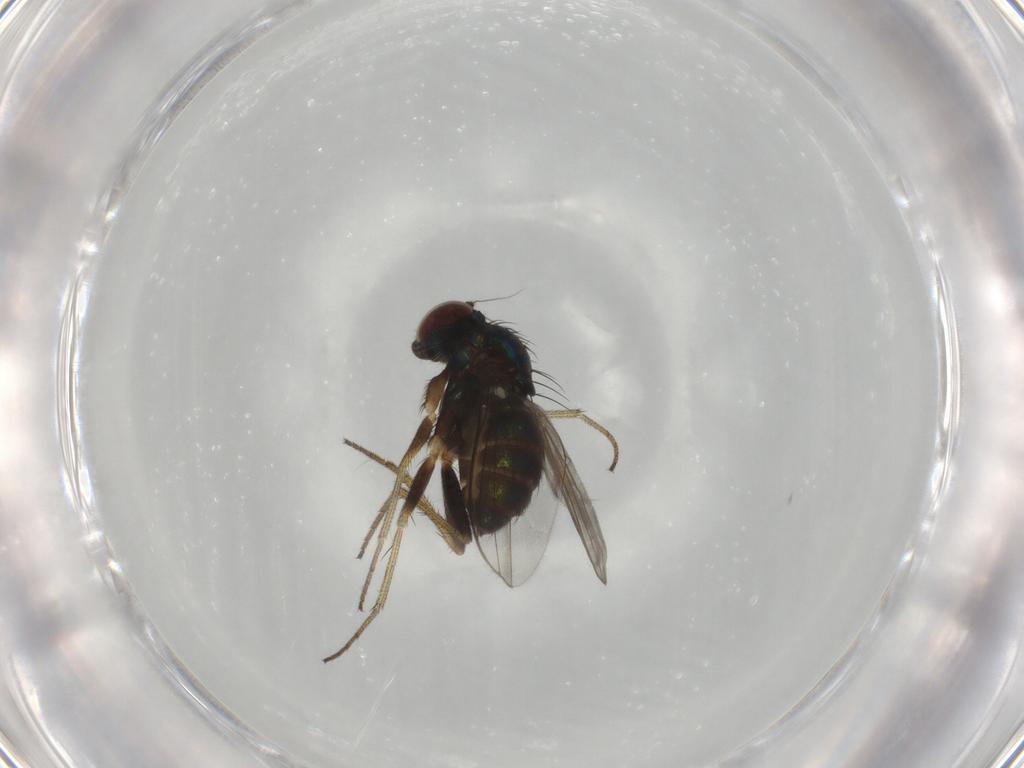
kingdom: Animalia
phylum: Arthropoda
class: Insecta
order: Diptera
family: Dolichopodidae
